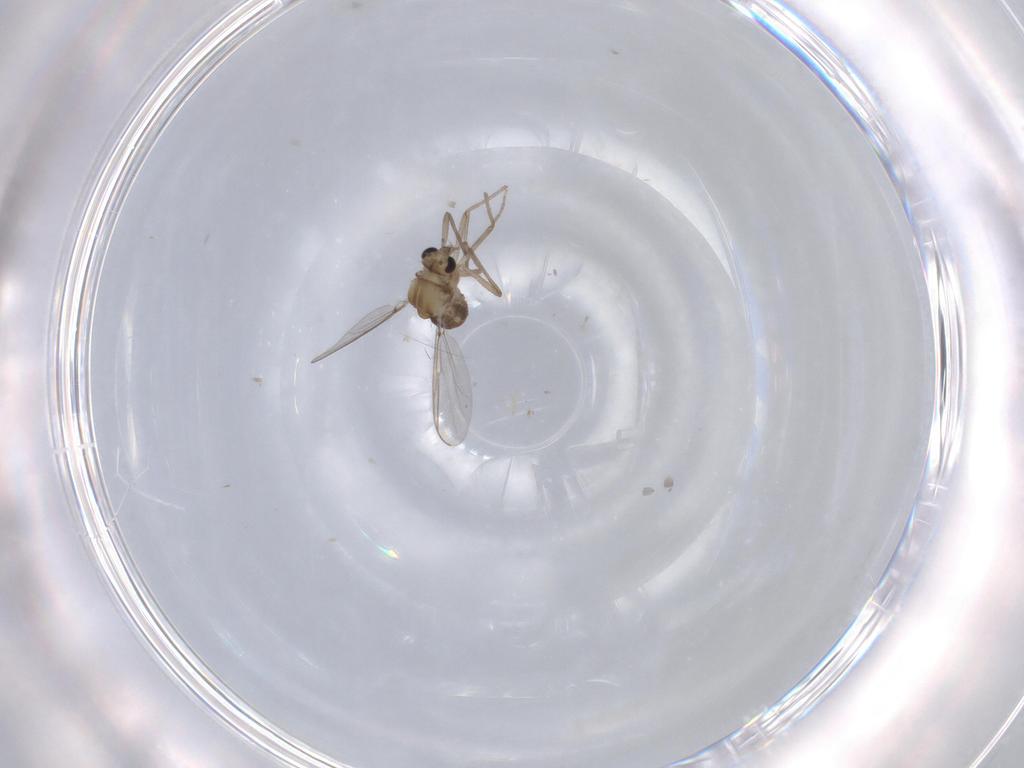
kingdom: Animalia
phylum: Arthropoda
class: Insecta
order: Diptera
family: Chironomidae
